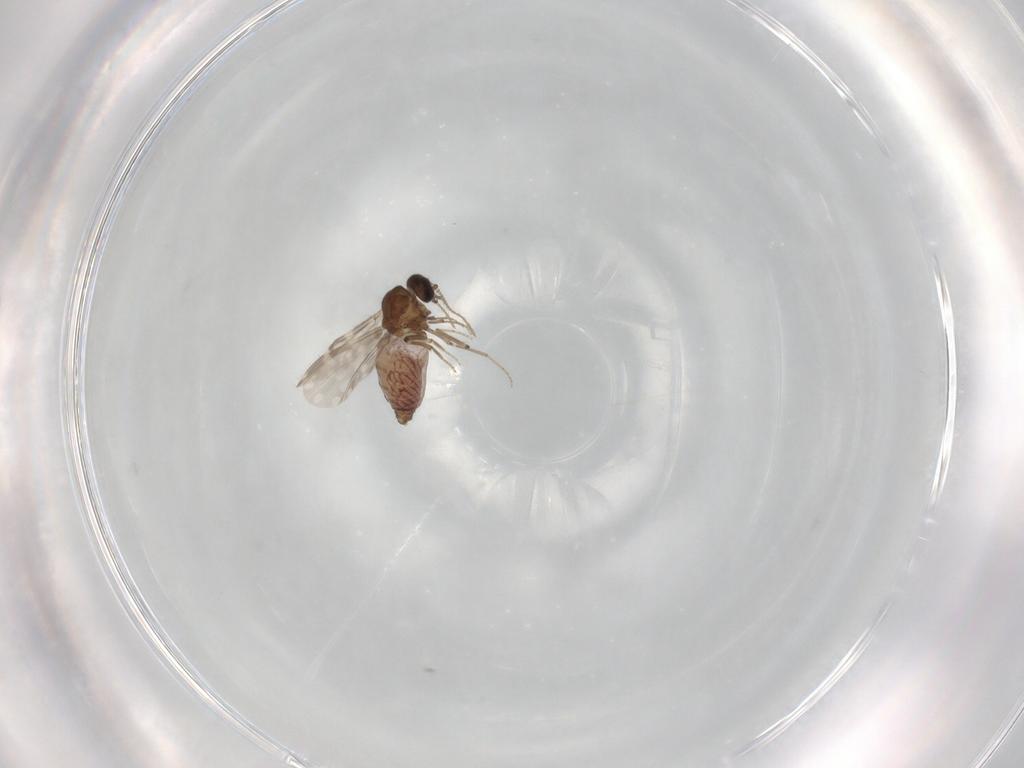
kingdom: Animalia
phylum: Arthropoda
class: Insecta
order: Diptera
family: Ceratopogonidae
